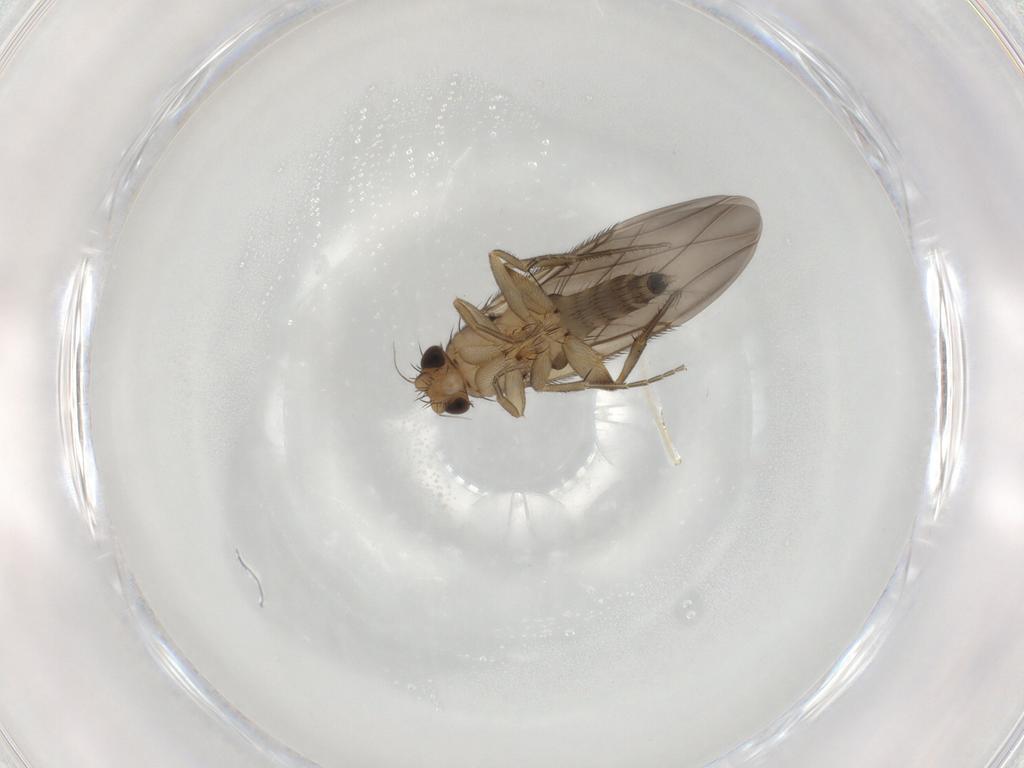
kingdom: Animalia
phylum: Arthropoda
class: Insecta
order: Diptera
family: Phoridae
